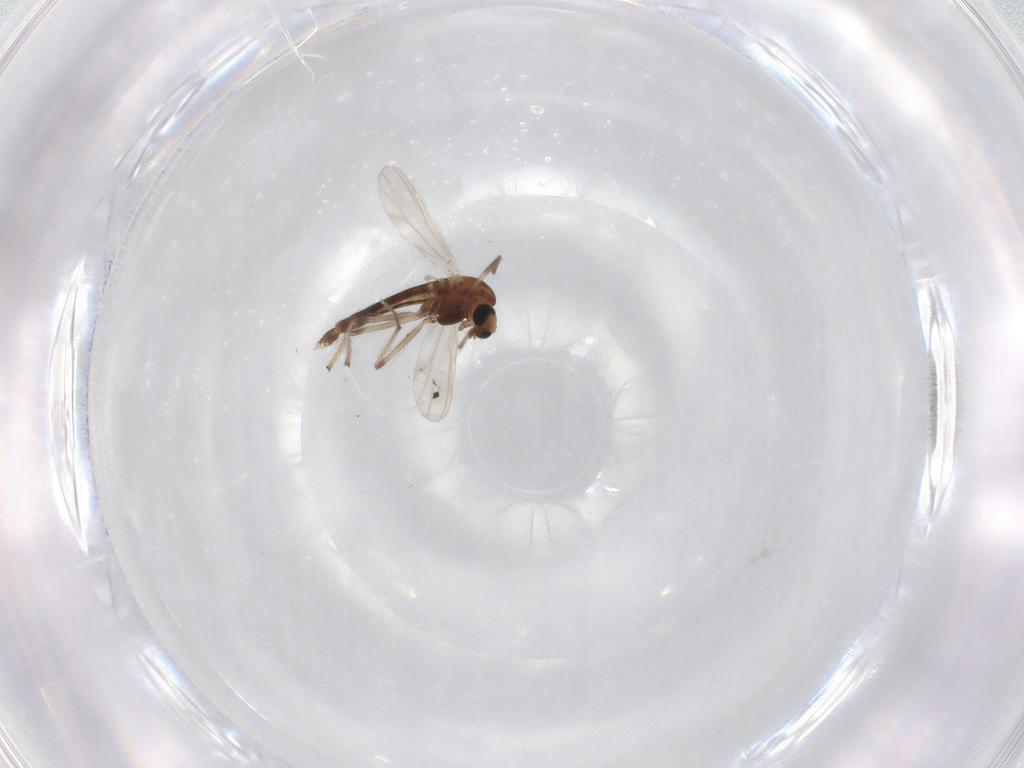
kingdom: Animalia
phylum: Arthropoda
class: Insecta
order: Diptera
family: Chironomidae
